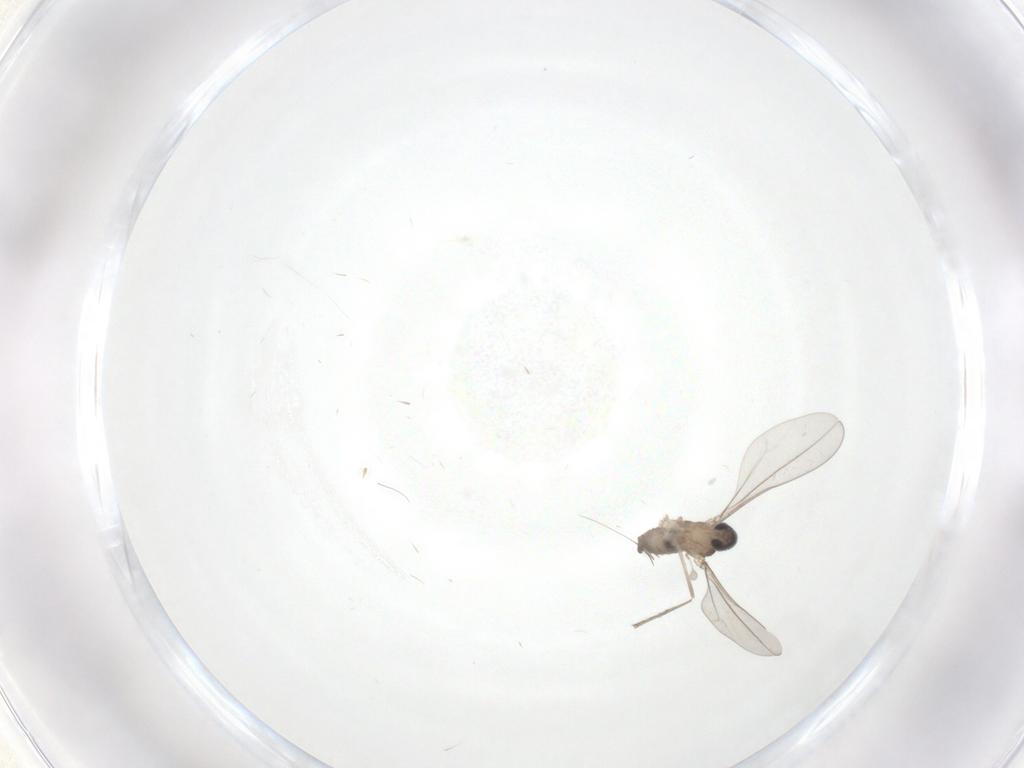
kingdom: Animalia
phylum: Arthropoda
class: Insecta
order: Diptera
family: Cecidomyiidae
